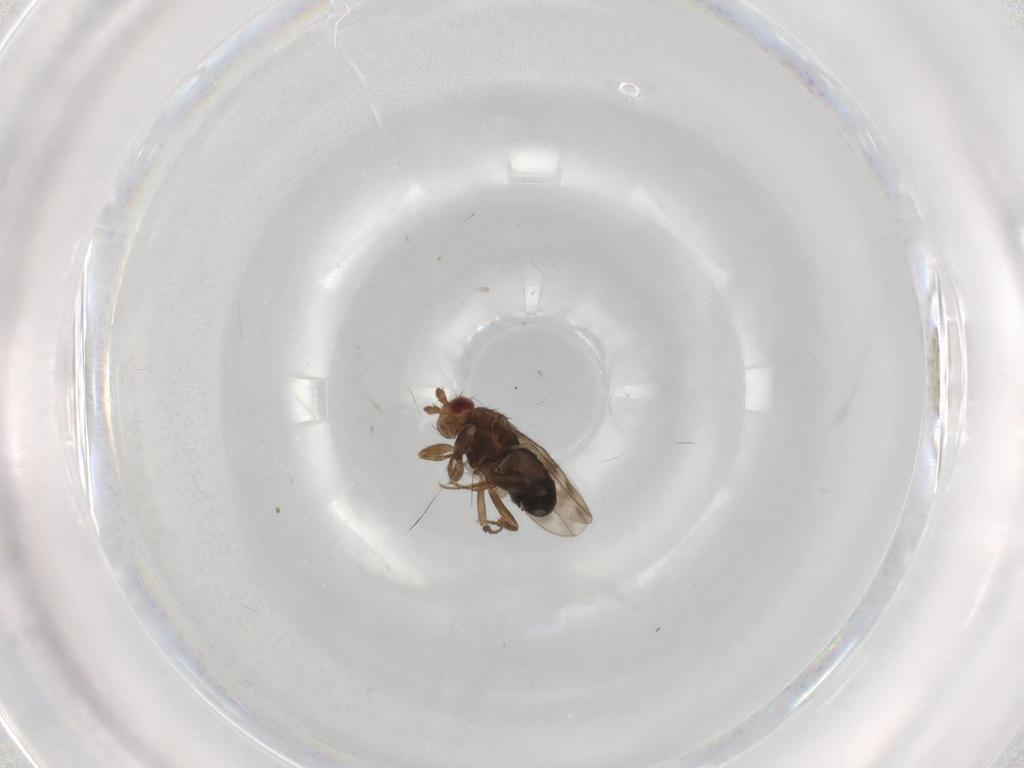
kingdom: Animalia
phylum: Arthropoda
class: Insecta
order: Diptera
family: Sphaeroceridae
